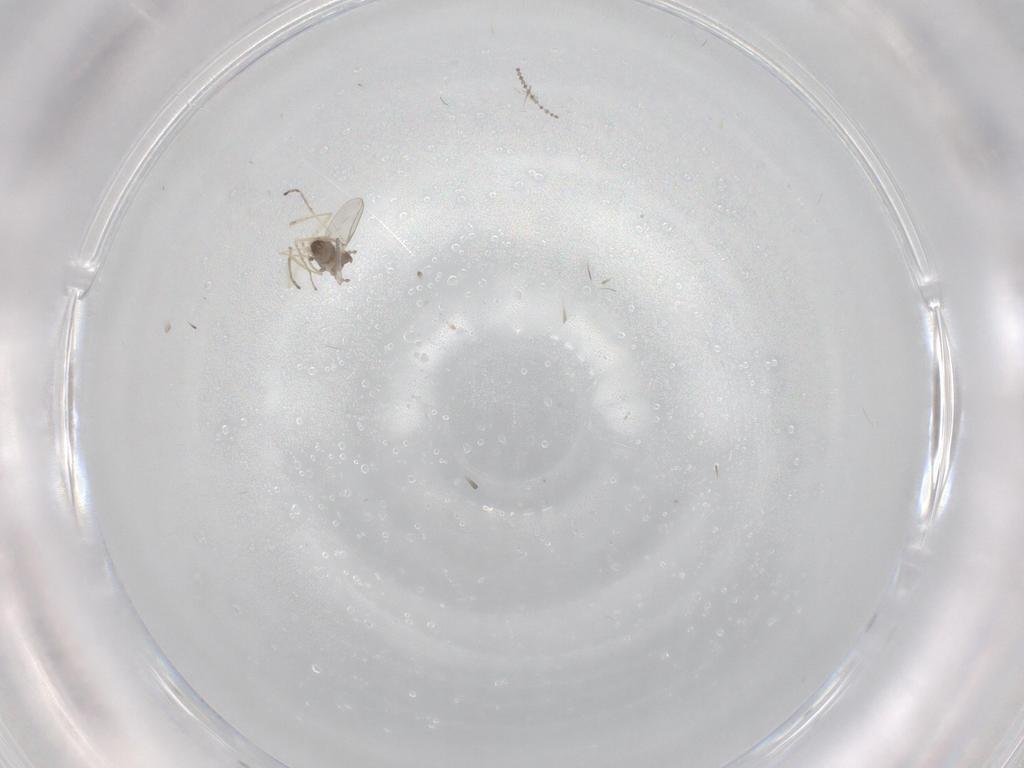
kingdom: Animalia
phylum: Arthropoda
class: Insecta
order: Diptera
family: Cecidomyiidae
